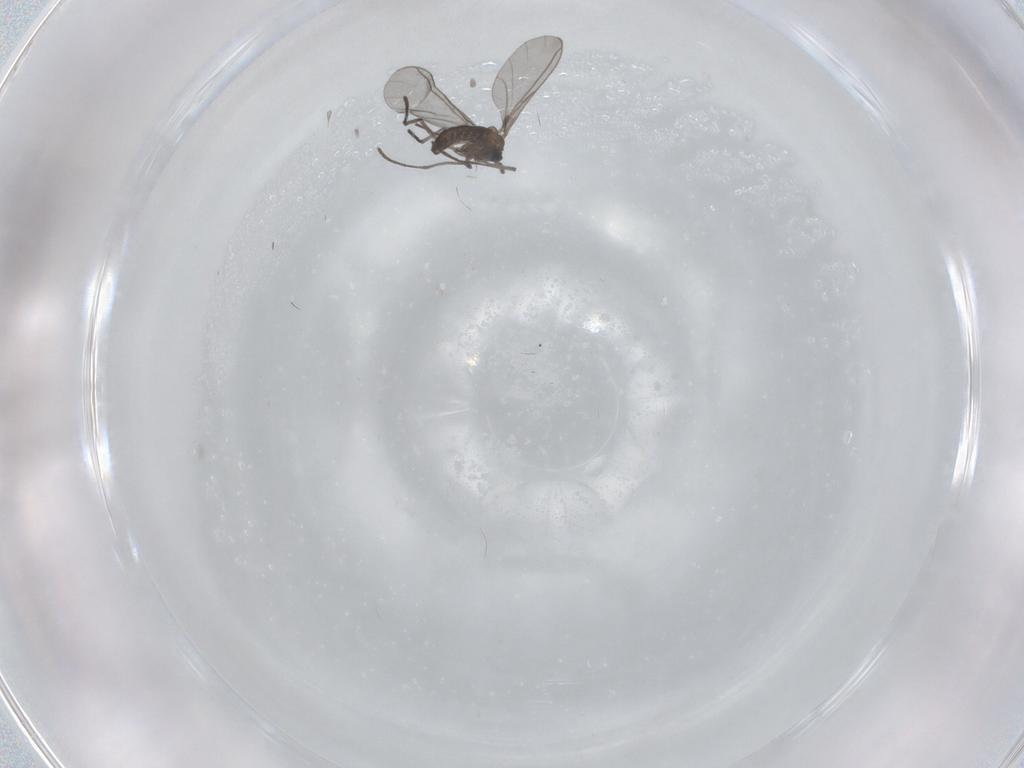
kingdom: Animalia
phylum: Arthropoda
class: Insecta
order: Diptera
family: Sciaridae
